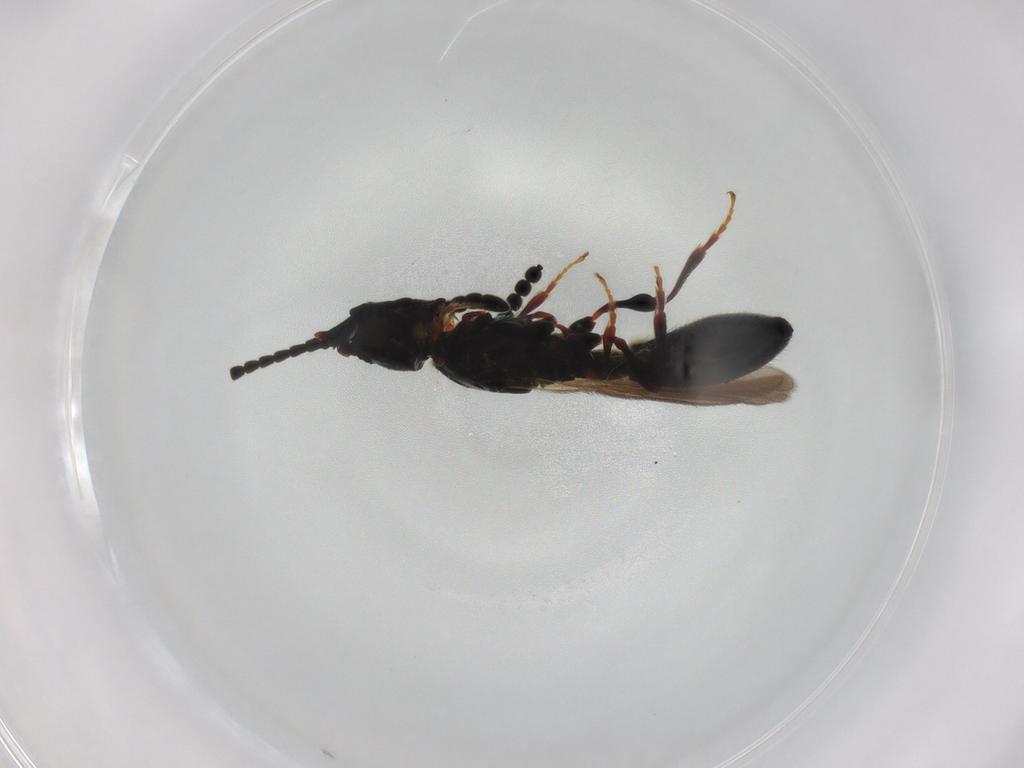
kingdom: Animalia
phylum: Arthropoda
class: Insecta
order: Hymenoptera
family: Diapriidae
